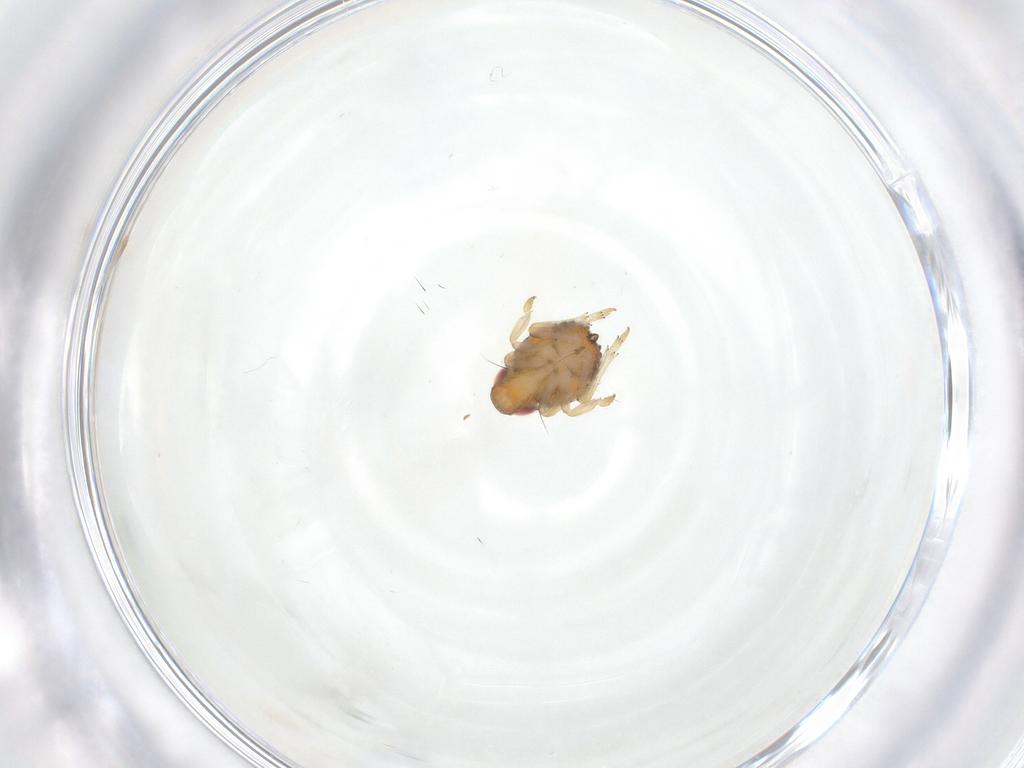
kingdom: Animalia
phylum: Arthropoda
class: Insecta
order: Hemiptera
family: Issidae
